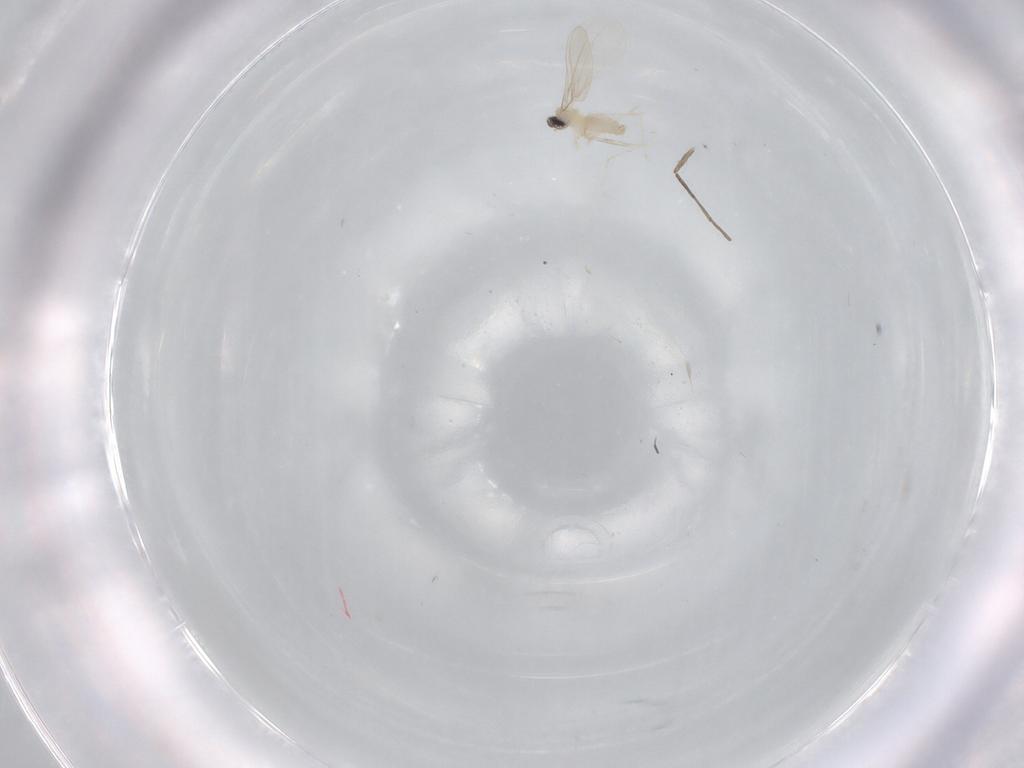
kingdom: Animalia
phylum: Arthropoda
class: Insecta
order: Diptera
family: Cecidomyiidae
